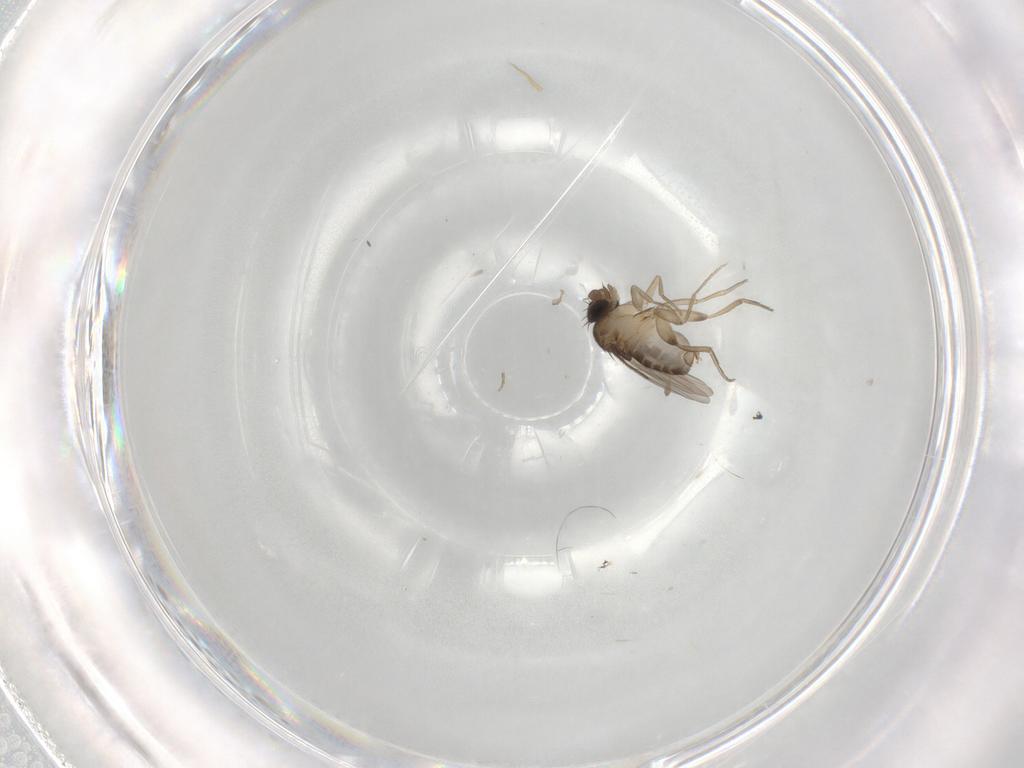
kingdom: Animalia
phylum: Arthropoda
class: Insecta
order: Diptera
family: Phoridae
